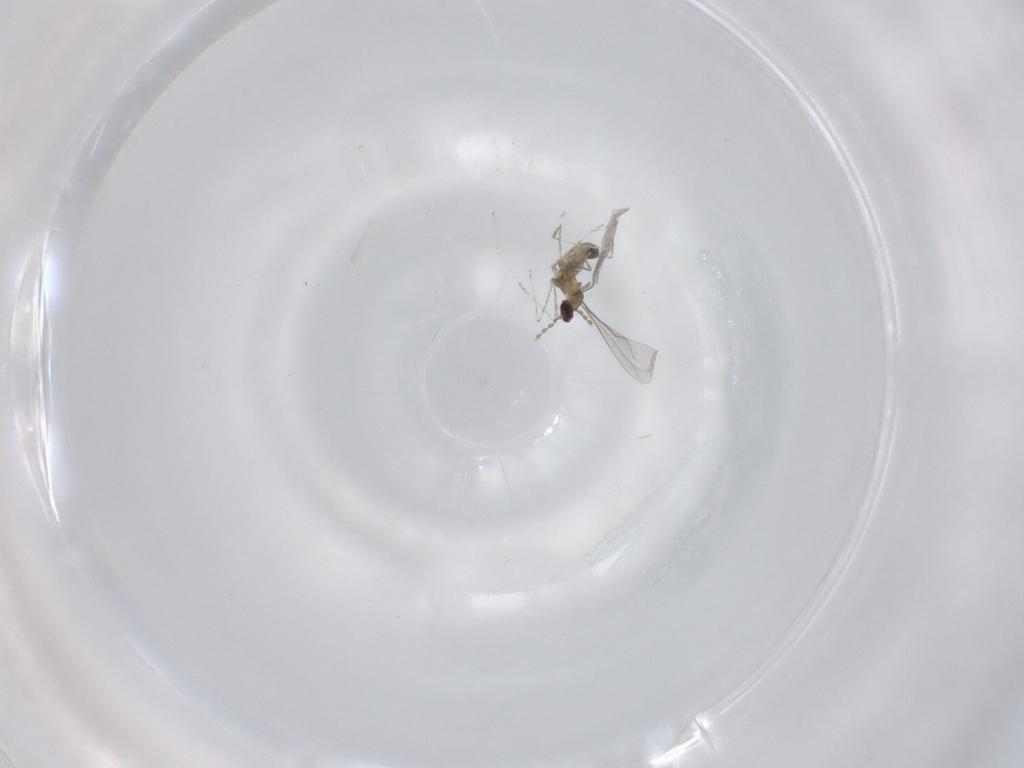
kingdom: Animalia
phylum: Arthropoda
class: Insecta
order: Diptera
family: Cecidomyiidae
